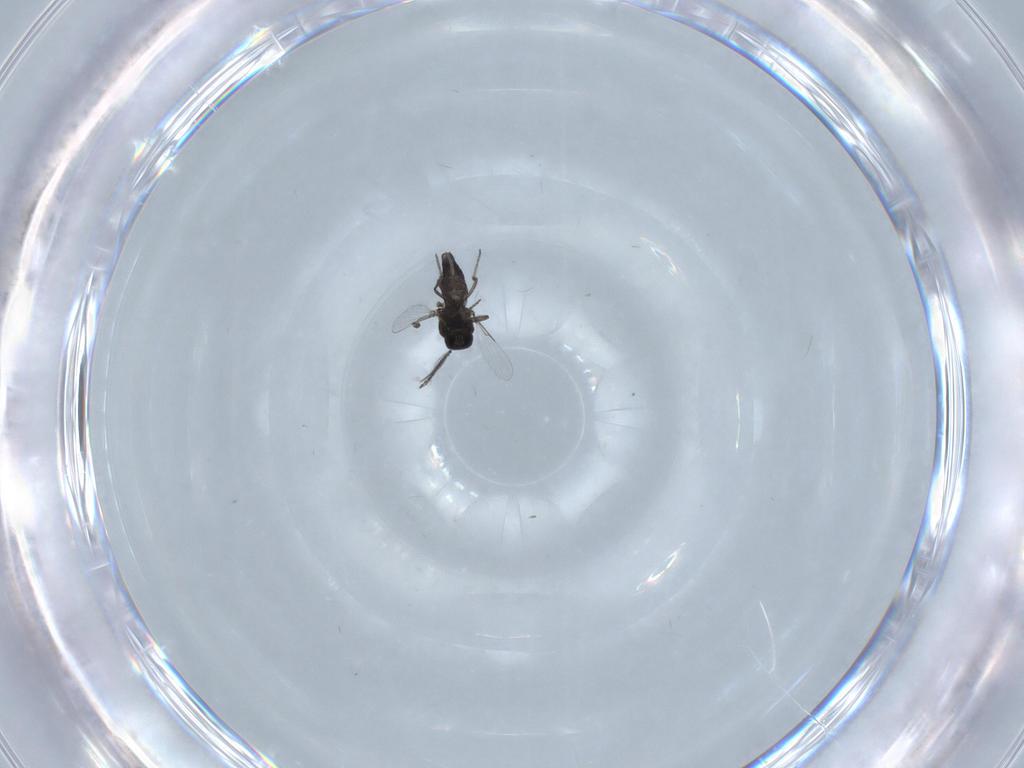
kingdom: Animalia
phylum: Arthropoda
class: Insecta
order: Diptera
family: Ceratopogonidae
